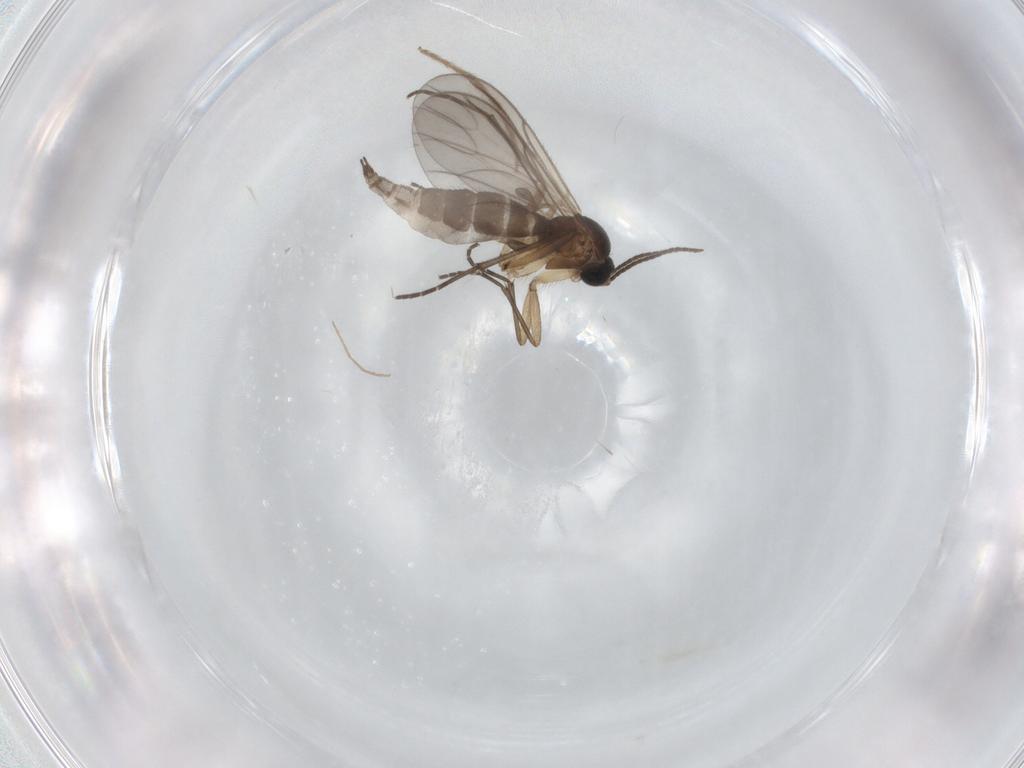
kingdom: Animalia
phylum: Arthropoda
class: Insecta
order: Diptera
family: Sciaridae
